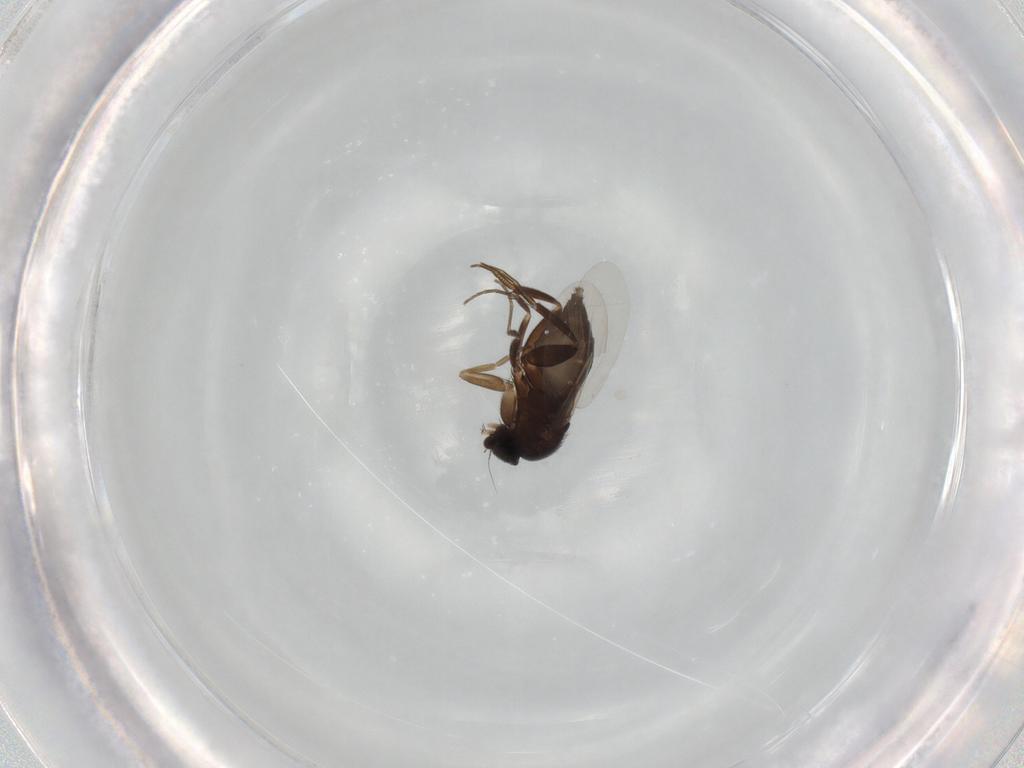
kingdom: Animalia
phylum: Arthropoda
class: Insecta
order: Diptera
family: Phoridae
